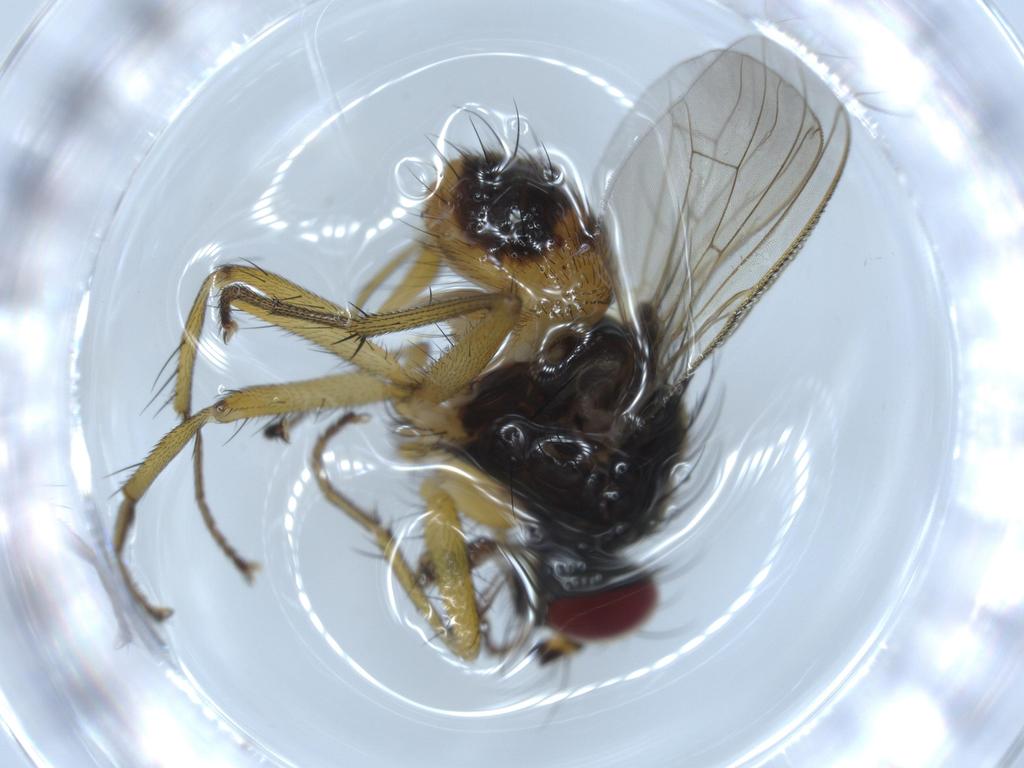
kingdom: Animalia
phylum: Arthropoda
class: Insecta
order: Diptera
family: Muscidae
